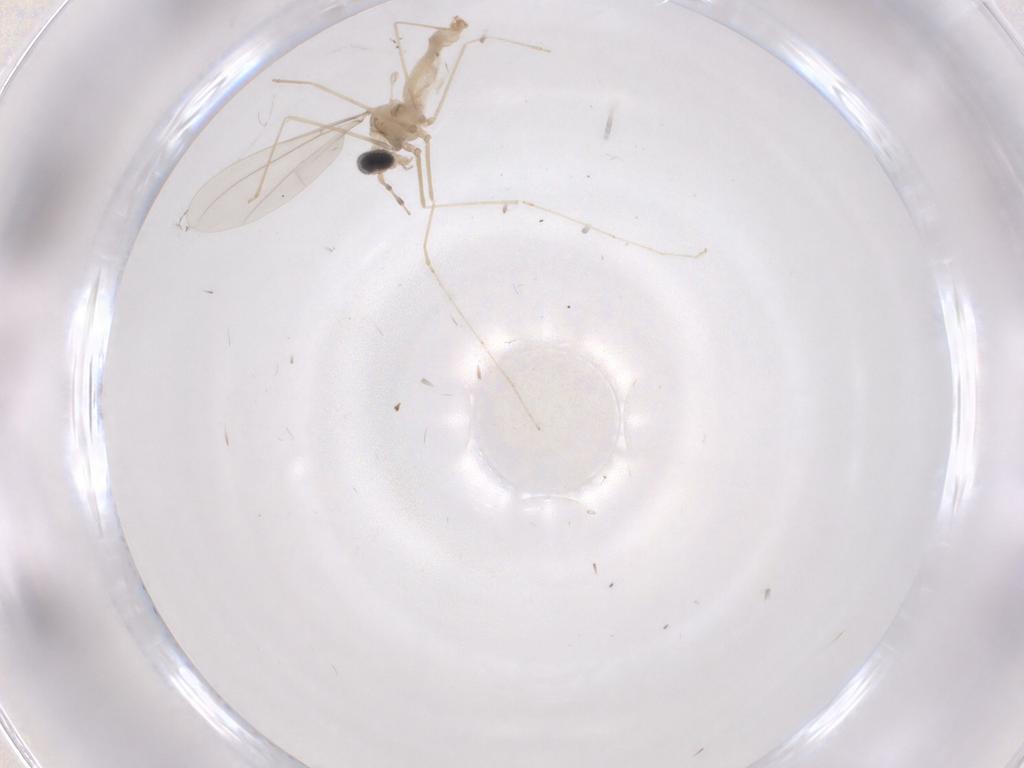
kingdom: Animalia
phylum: Arthropoda
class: Insecta
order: Diptera
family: Cecidomyiidae
